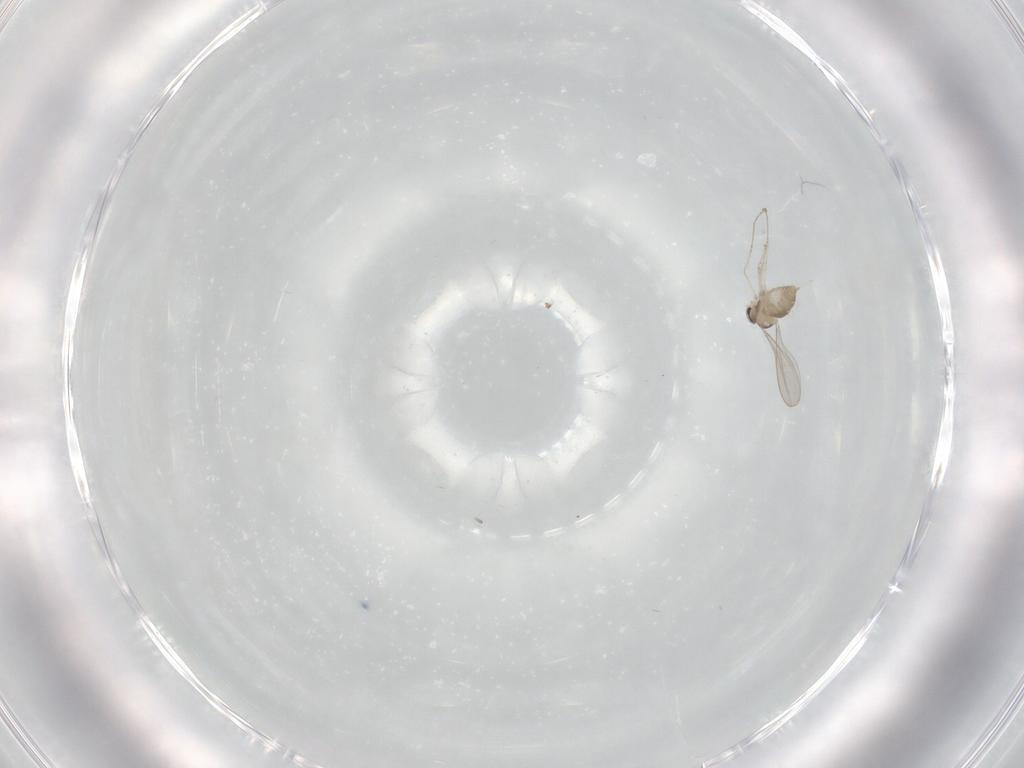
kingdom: Animalia
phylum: Arthropoda
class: Insecta
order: Diptera
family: Cecidomyiidae
